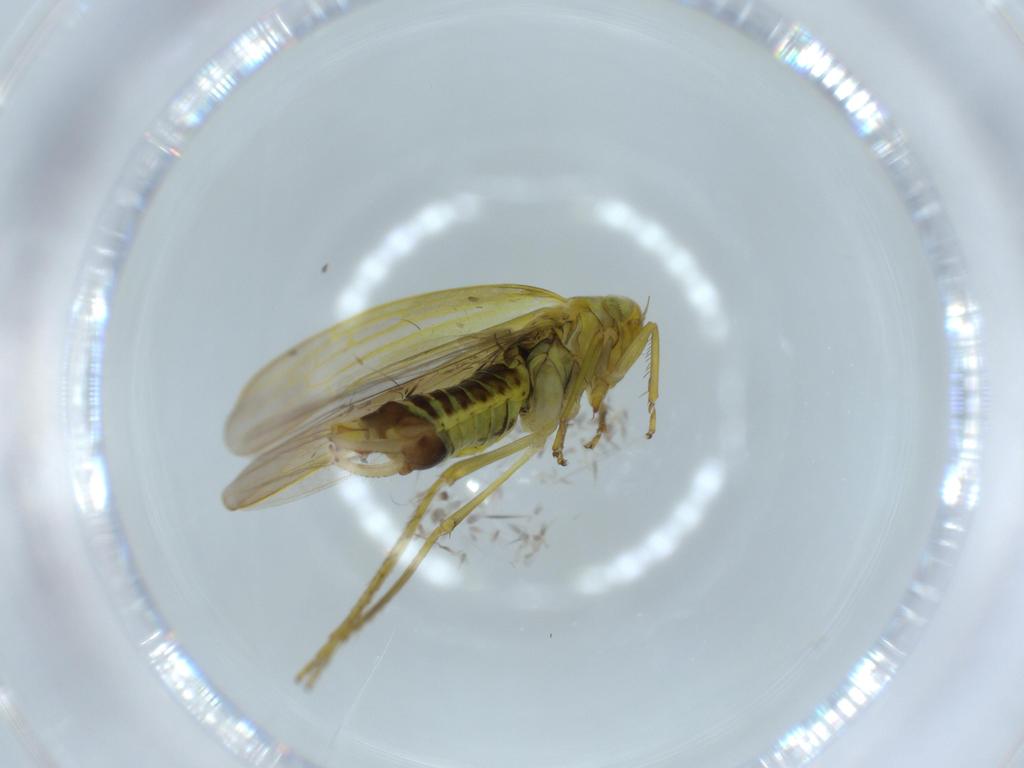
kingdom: Animalia
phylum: Arthropoda
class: Insecta
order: Hemiptera
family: Cicadellidae
